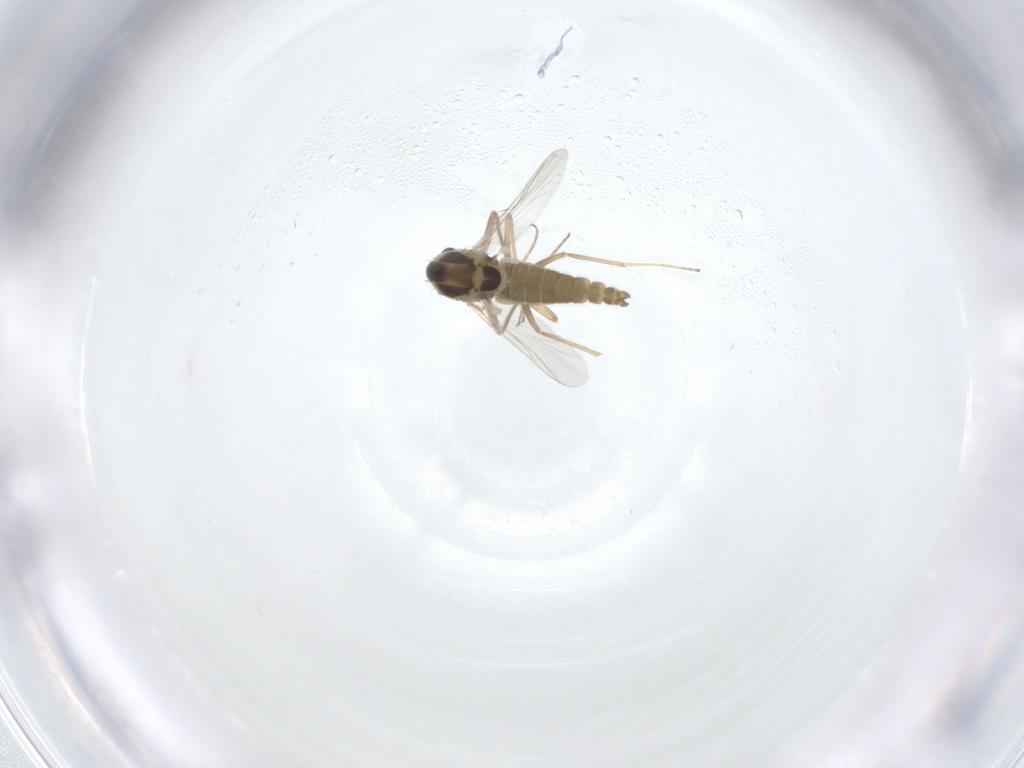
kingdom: Animalia
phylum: Arthropoda
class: Insecta
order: Diptera
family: Chironomidae
